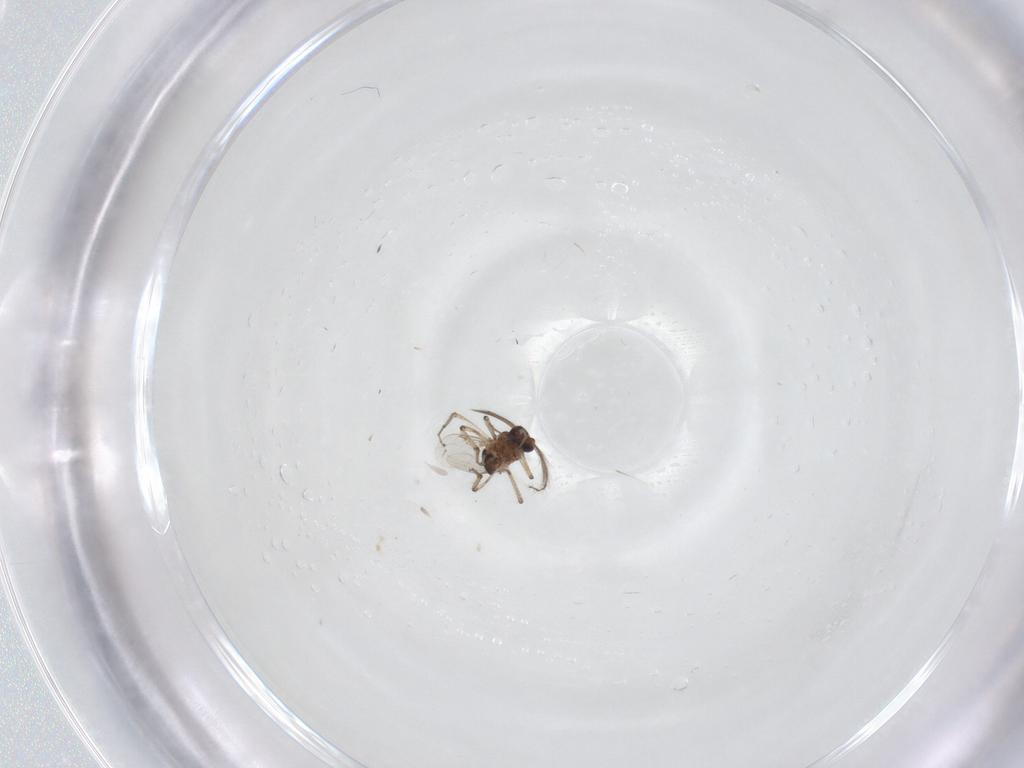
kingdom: Animalia
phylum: Arthropoda
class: Insecta
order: Diptera
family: Ceratopogonidae
